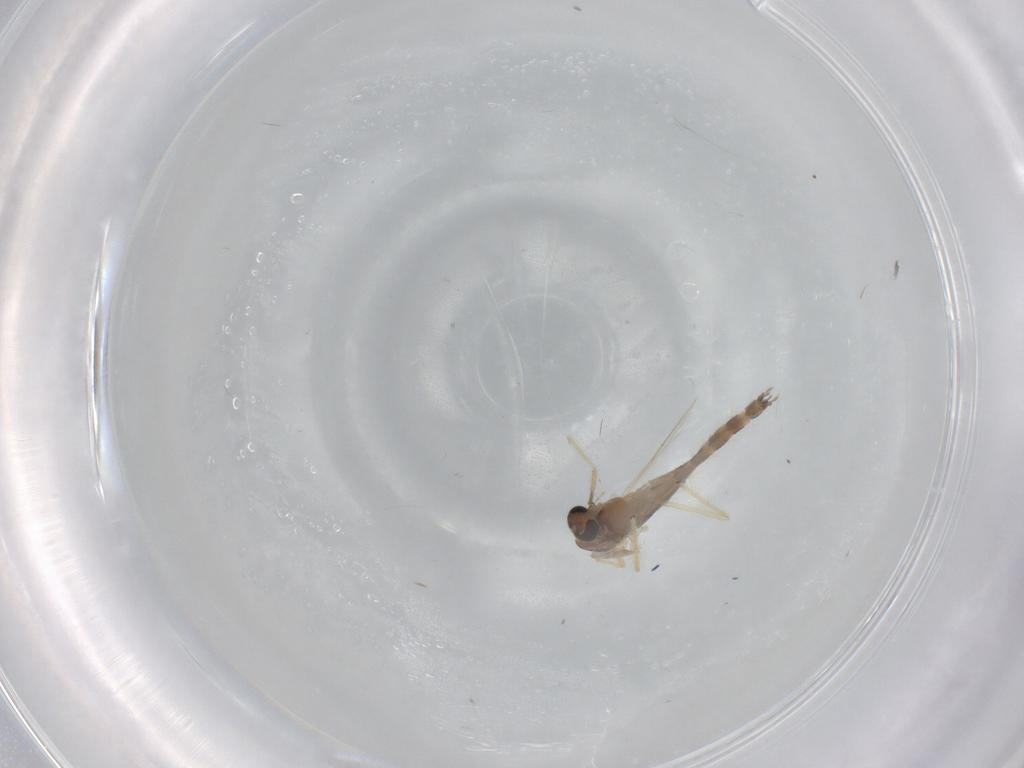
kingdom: Animalia
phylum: Arthropoda
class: Insecta
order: Diptera
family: Chironomidae
